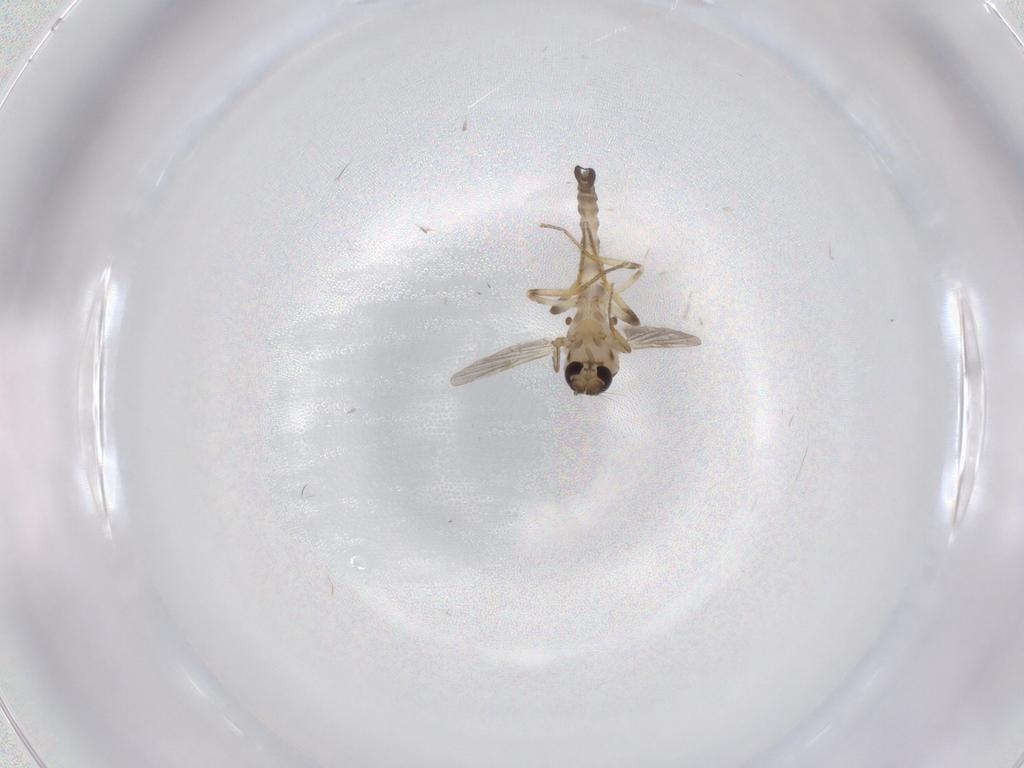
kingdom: Animalia
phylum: Arthropoda
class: Insecta
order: Diptera
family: Ceratopogonidae
